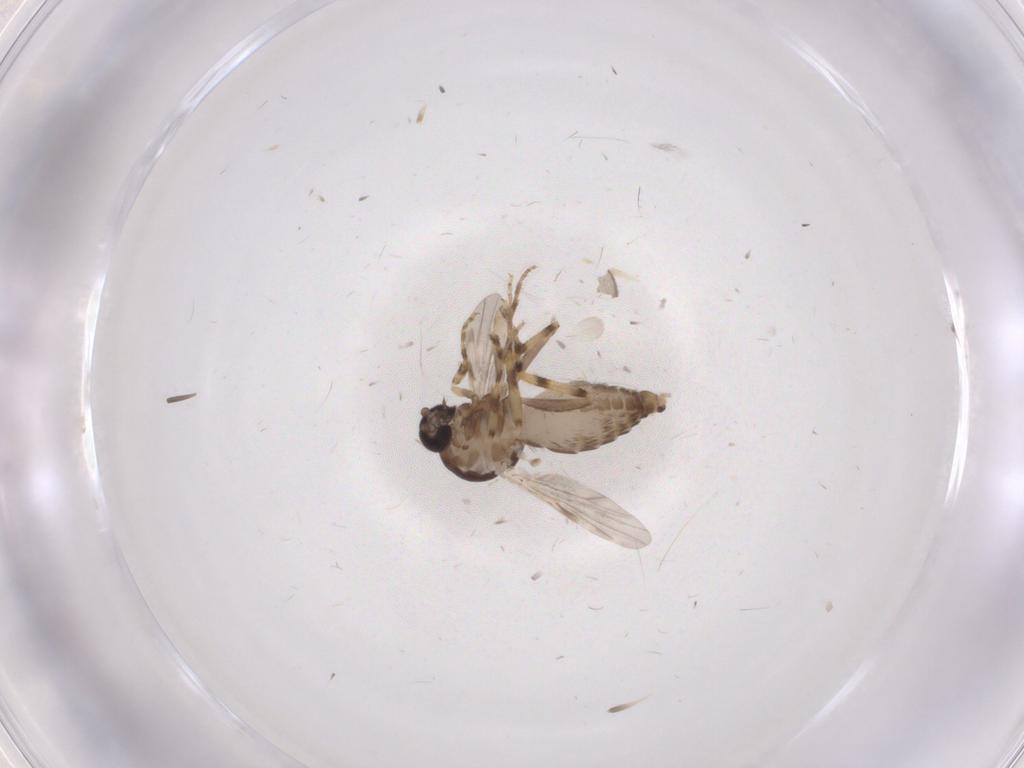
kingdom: Animalia
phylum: Arthropoda
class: Insecta
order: Diptera
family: Ceratopogonidae
